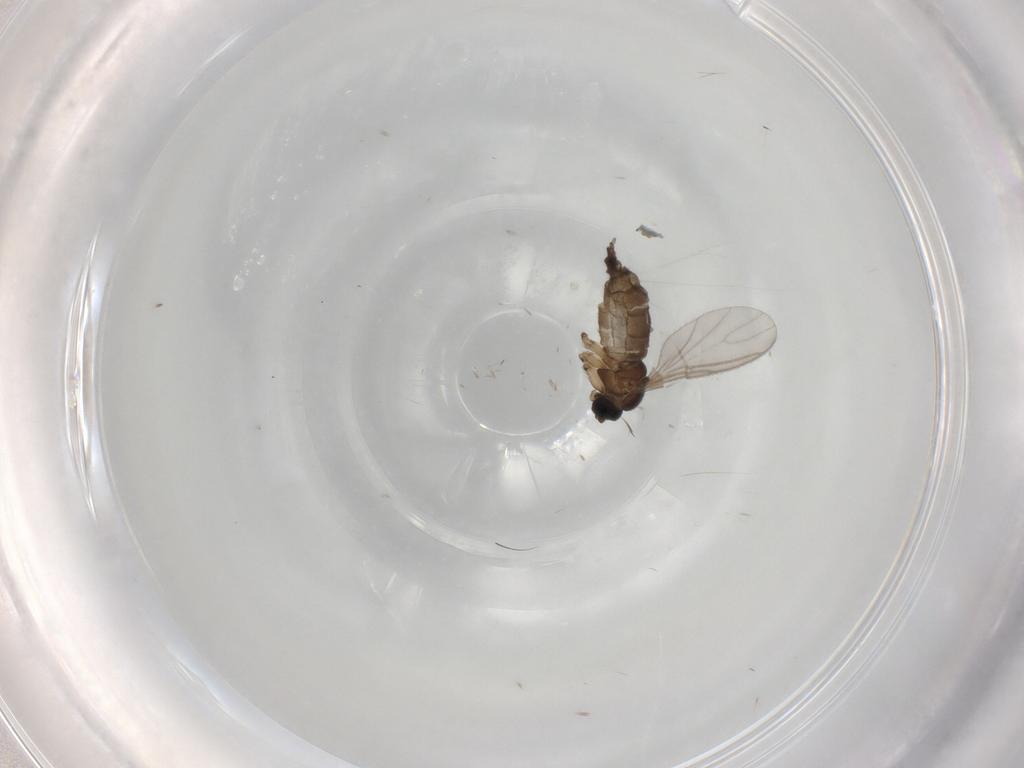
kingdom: Animalia
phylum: Arthropoda
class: Insecta
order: Diptera
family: Sciaridae
